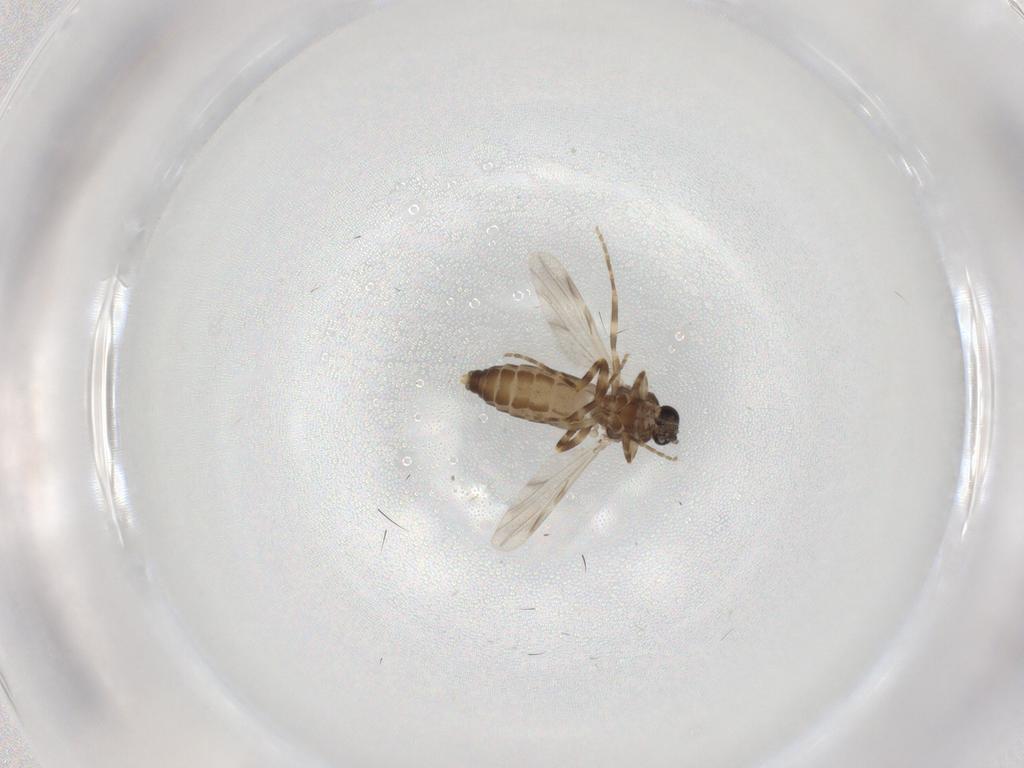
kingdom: Animalia
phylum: Arthropoda
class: Insecta
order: Diptera
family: Ceratopogonidae
